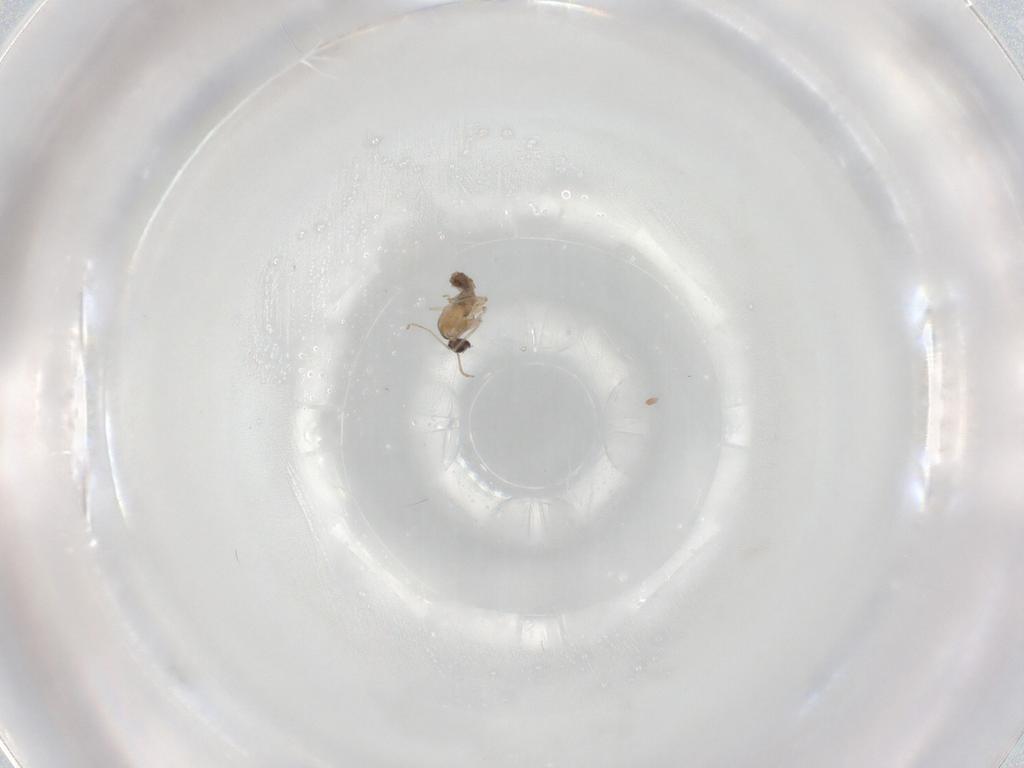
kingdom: Animalia
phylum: Arthropoda
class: Insecta
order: Diptera
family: Cecidomyiidae
